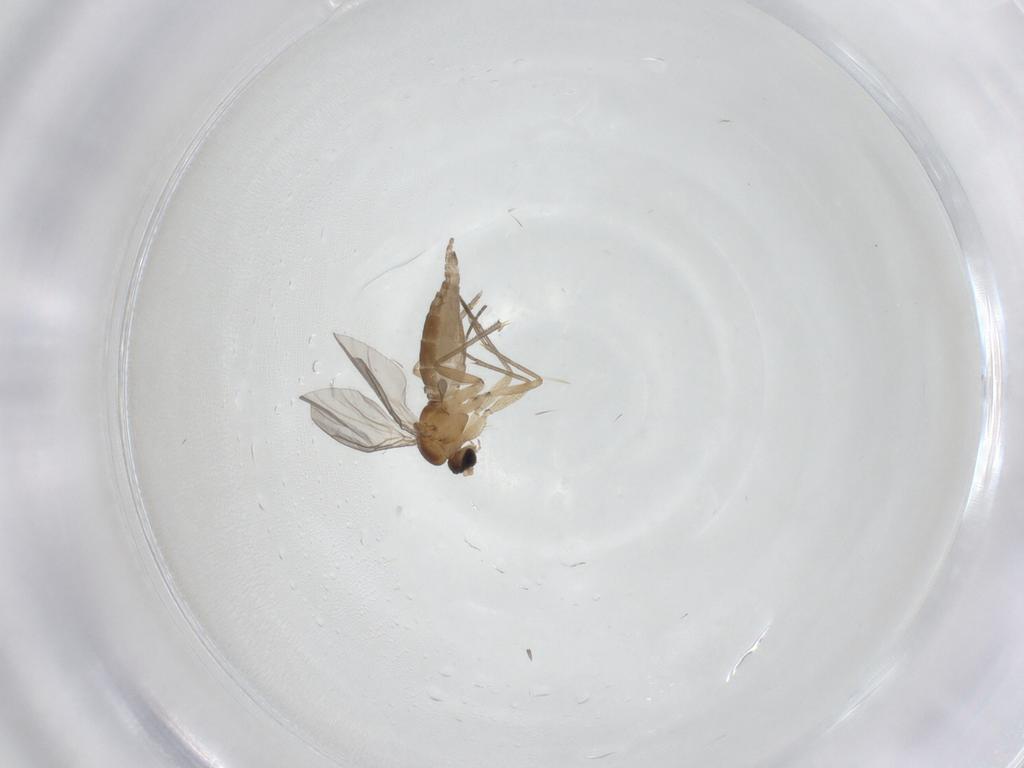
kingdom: Animalia
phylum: Arthropoda
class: Insecta
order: Diptera
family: Sciaridae
